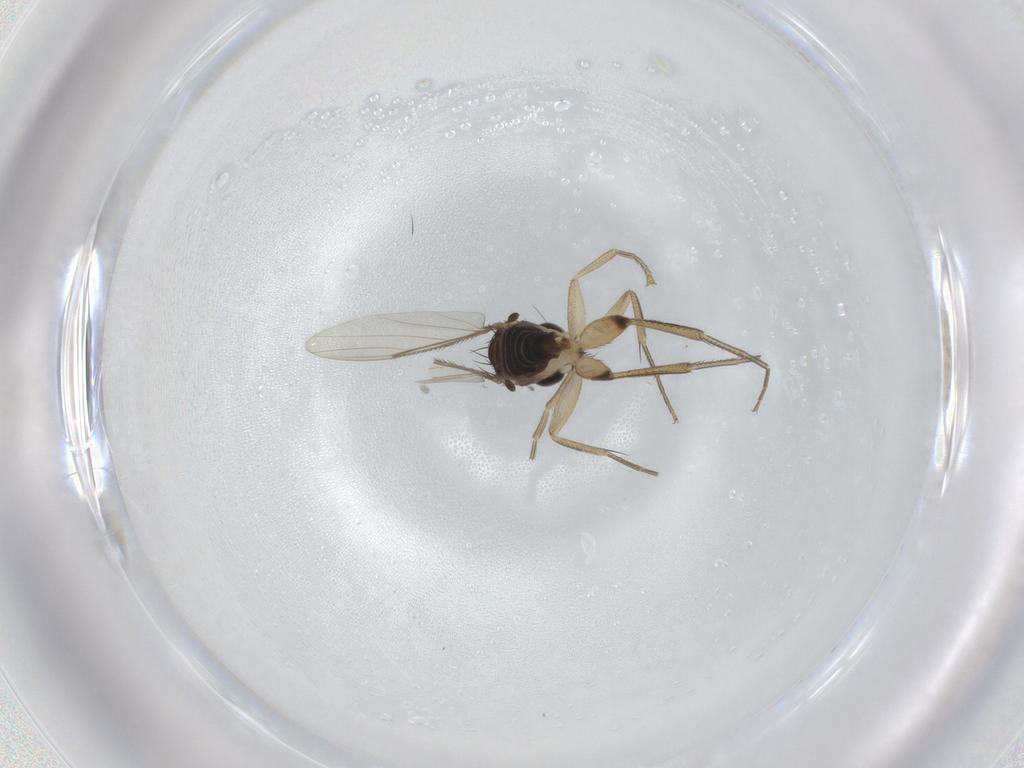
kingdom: Animalia
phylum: Arthropoda
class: Insecta
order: Diptera
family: Phoridae
